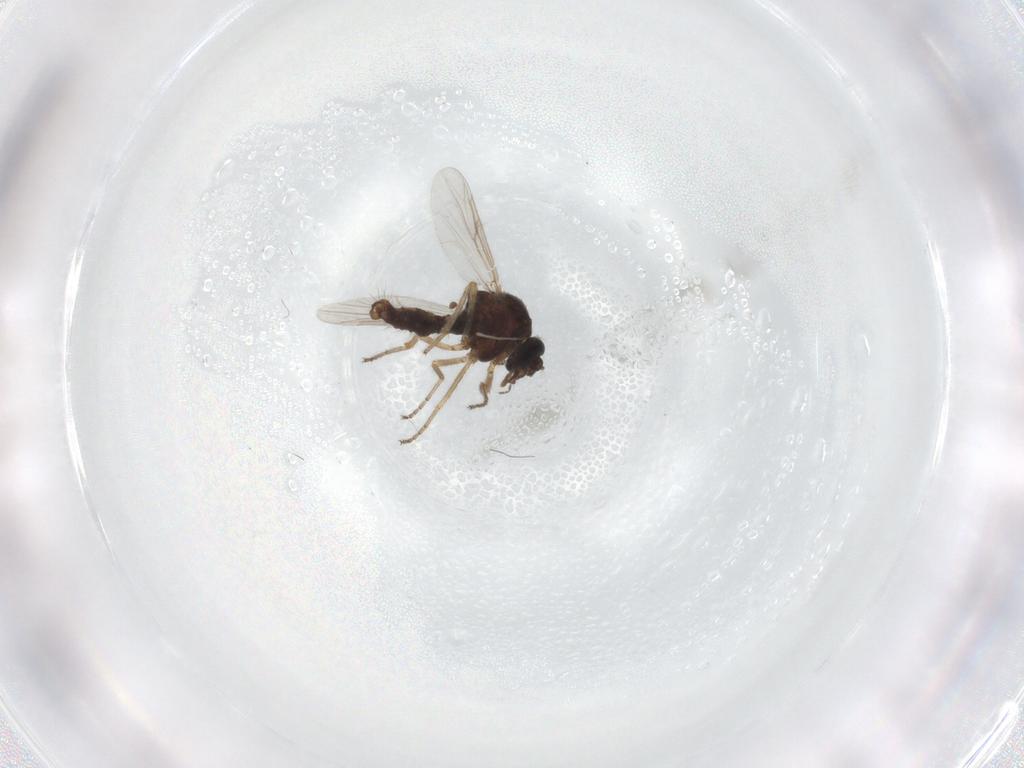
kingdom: Animalia
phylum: Arthropoda
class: Insecta
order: Diptera
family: Ceratopogonidae
